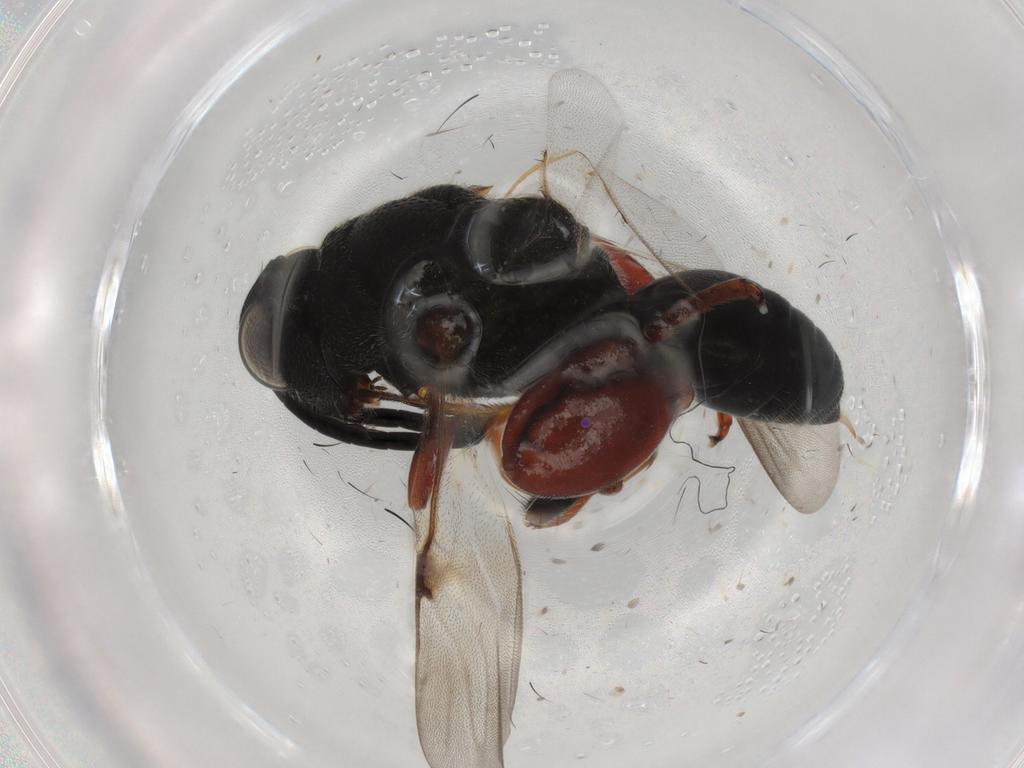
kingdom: Animalia
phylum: Arthropoda
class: Insecta
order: Hymenoptera
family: Chalcididae
